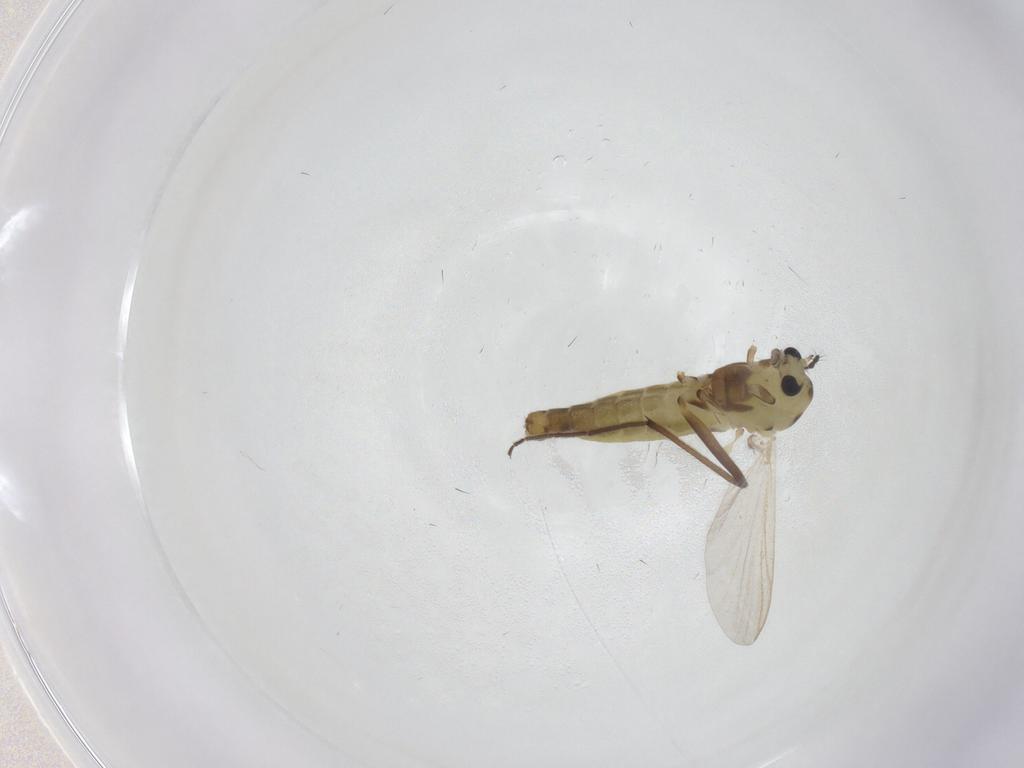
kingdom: Animalia
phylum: Arthropoda
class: Insecta
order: Diptera
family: Chironomidae
